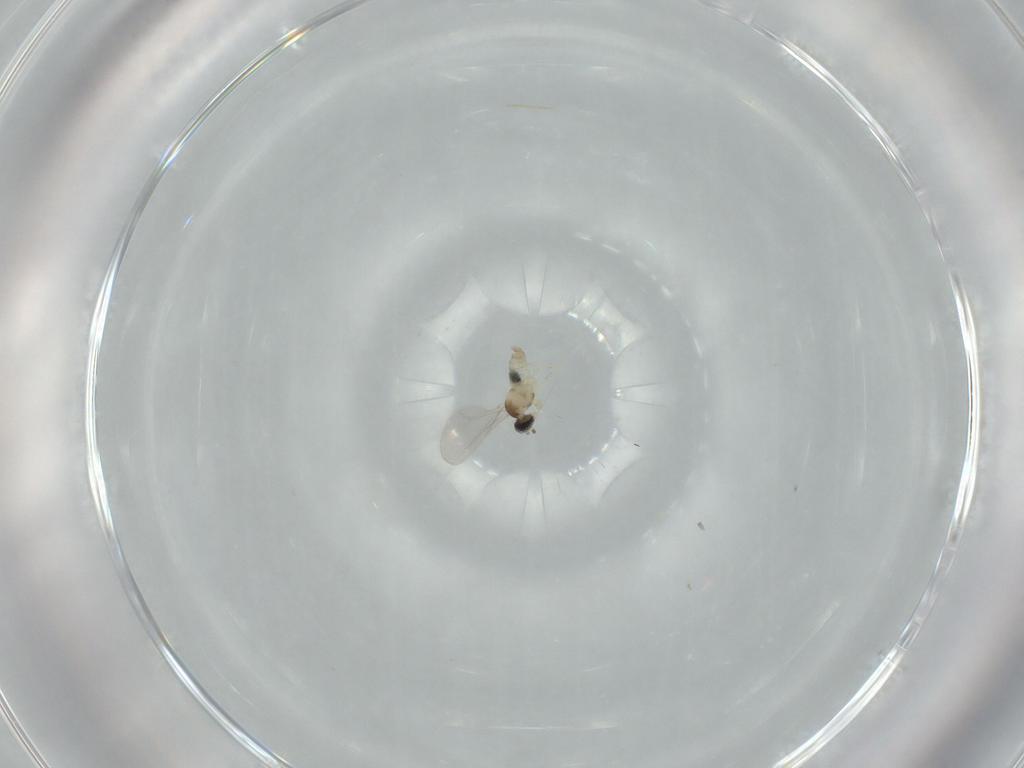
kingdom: Animalia
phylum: Arthropoda
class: Insecta
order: Diptera
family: Cecidomyiidae
